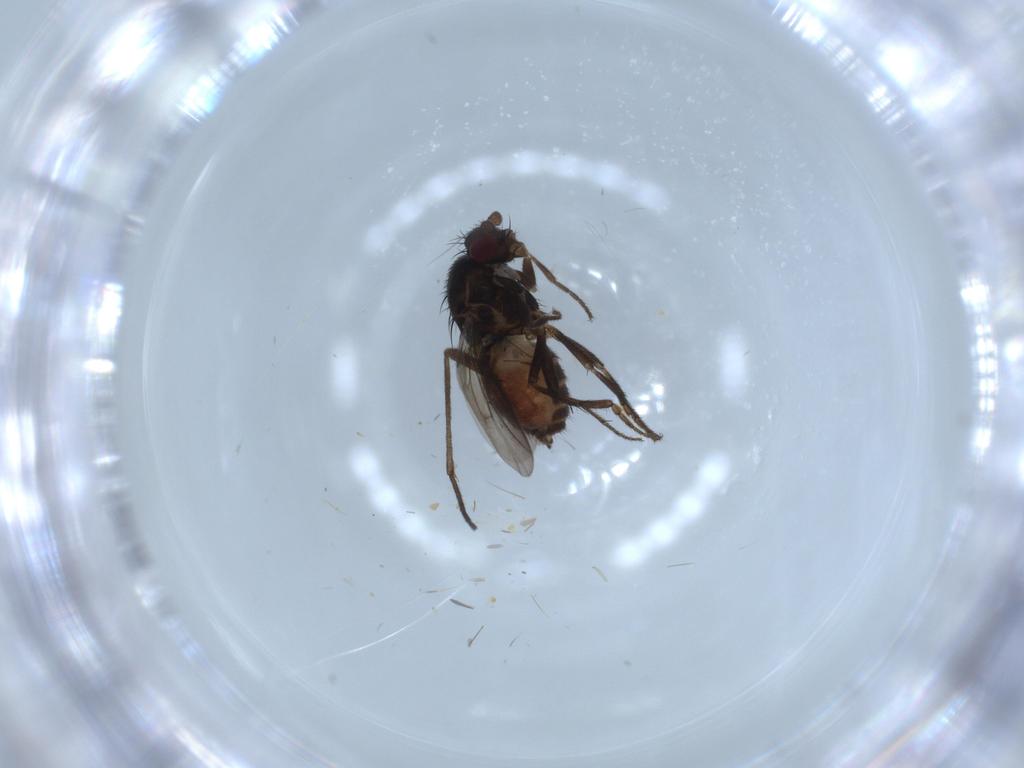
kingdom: Animalia
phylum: Arthropoda
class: Insecta
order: Diptera
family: Sphaeroceridae
